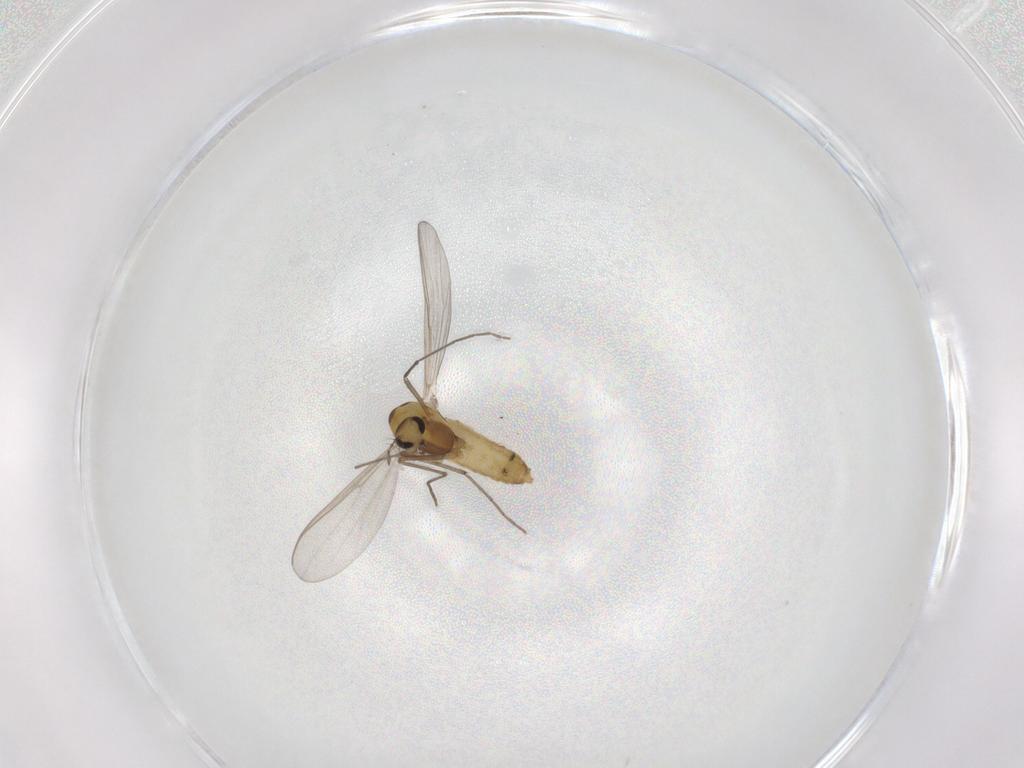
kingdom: Animalia
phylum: Arthropoda
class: Insecta
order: Diptera
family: Chironomidae
